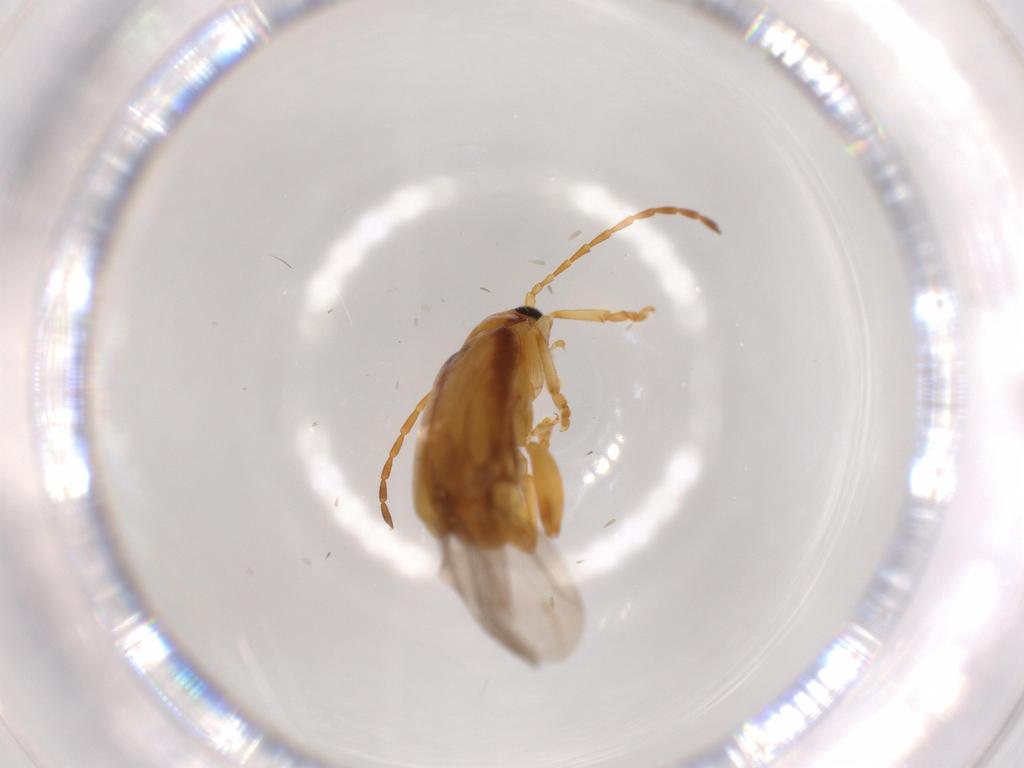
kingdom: Animalia
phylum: Arthropoda
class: Insecta
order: Coleoptera
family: Chrysomelidae
